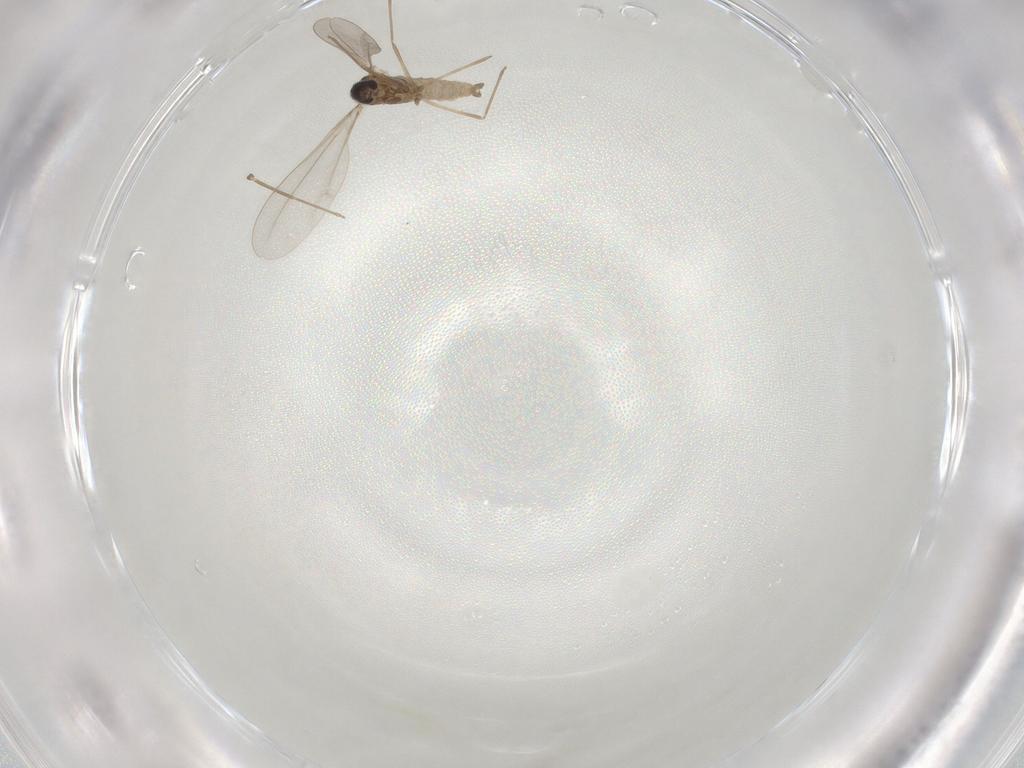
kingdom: Animalia
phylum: Arthropoda
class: Insecta
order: Diptera
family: Cecidomyiidae
